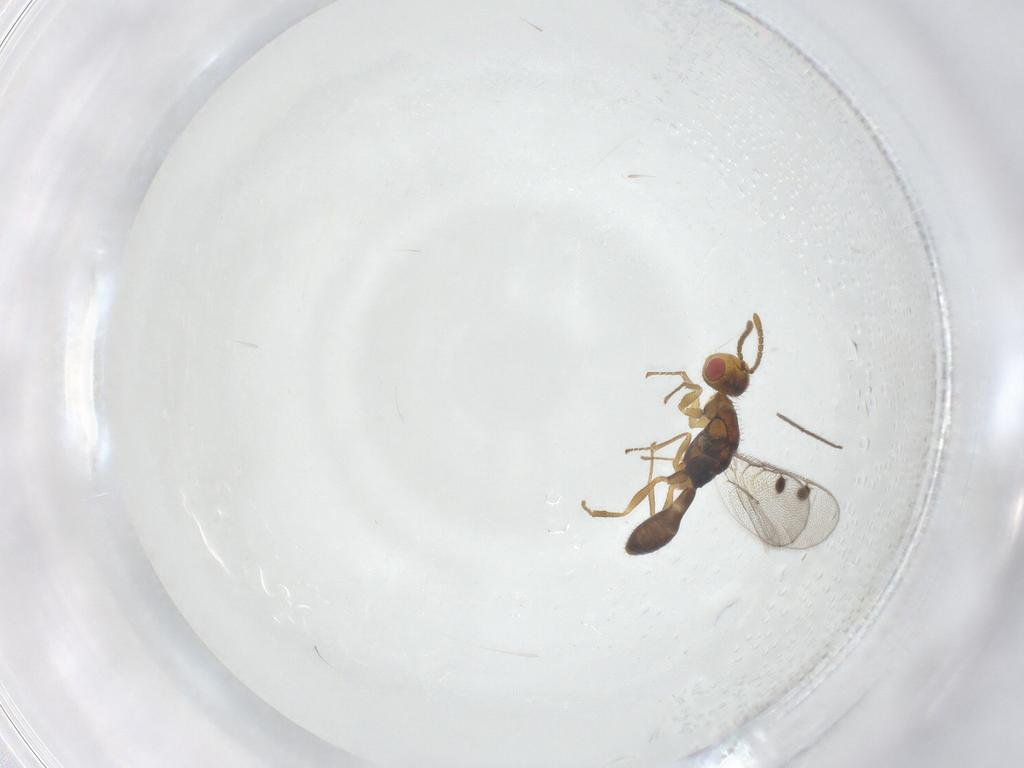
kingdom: Animalia
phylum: Arthropoda
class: Insecta
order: Hymenoptera
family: Megastigmidae
